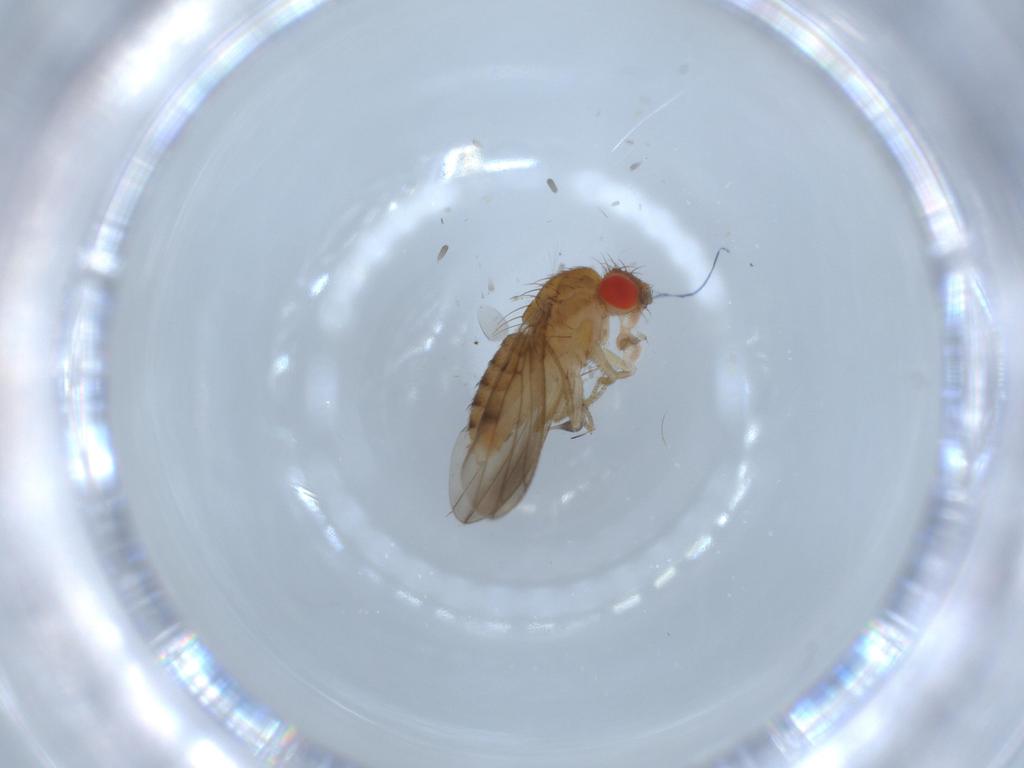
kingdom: Animalia
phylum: Arthropoda
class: Insecta
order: Diptera
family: Drosophilidae
